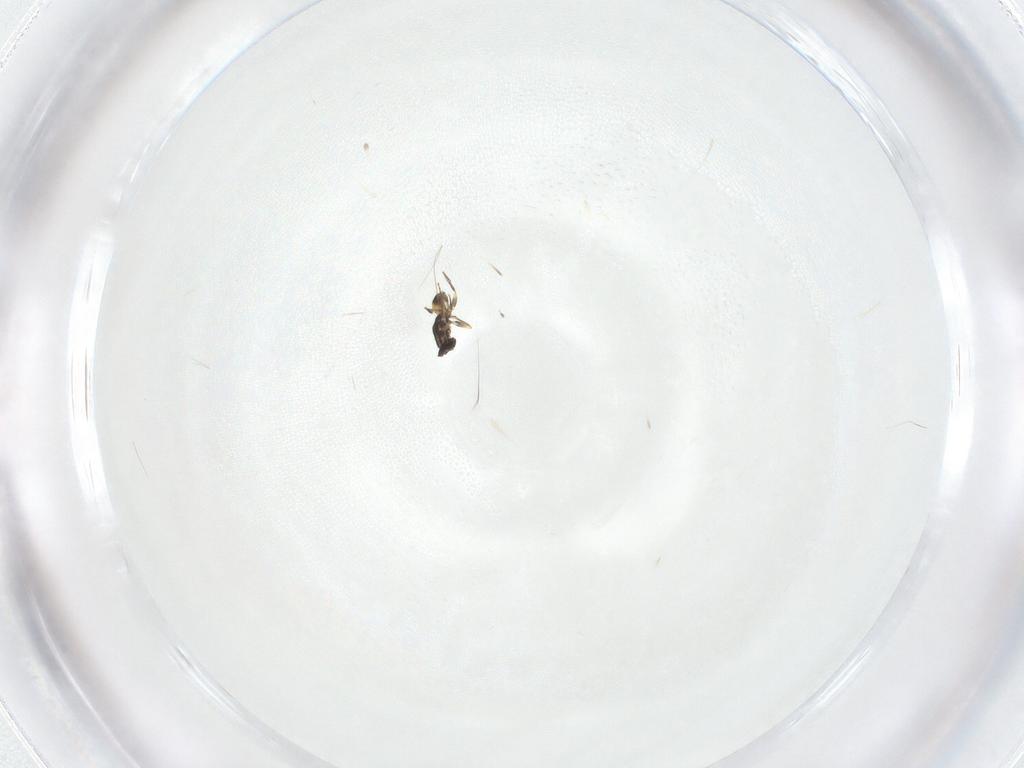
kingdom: Animalia
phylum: Arthropoda
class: Insecta
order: Hymenoptera
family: Mymaridae
